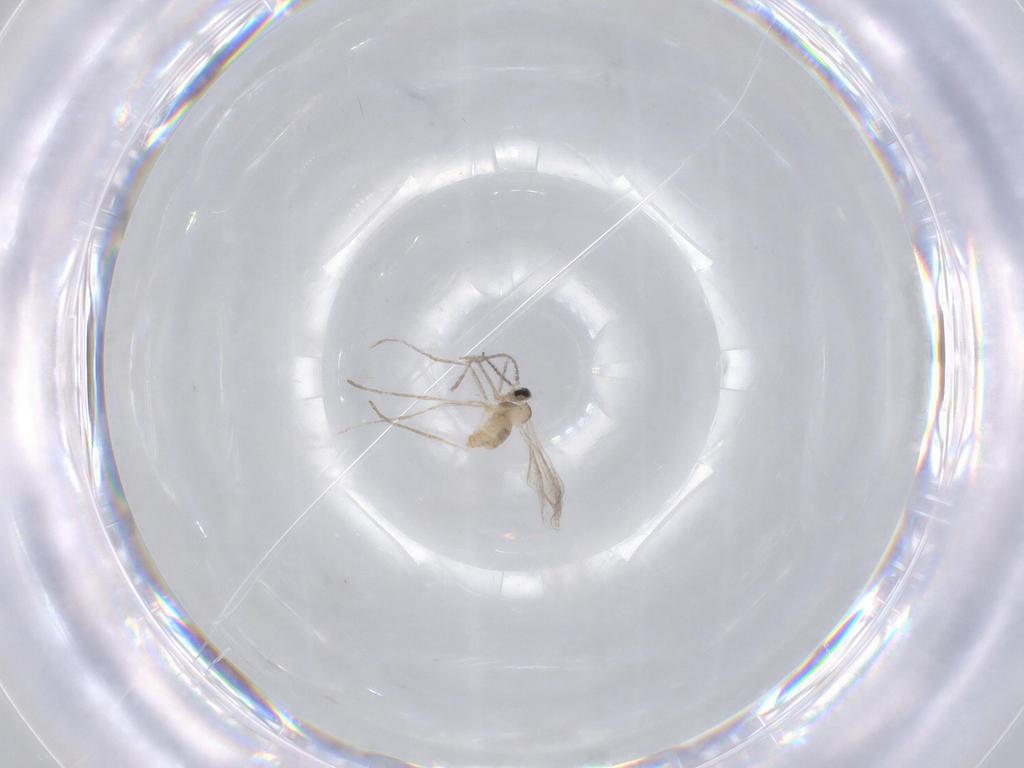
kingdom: Animalia
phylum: Arthropoda
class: Insecta
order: Diptera
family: Cecidomyiidae
